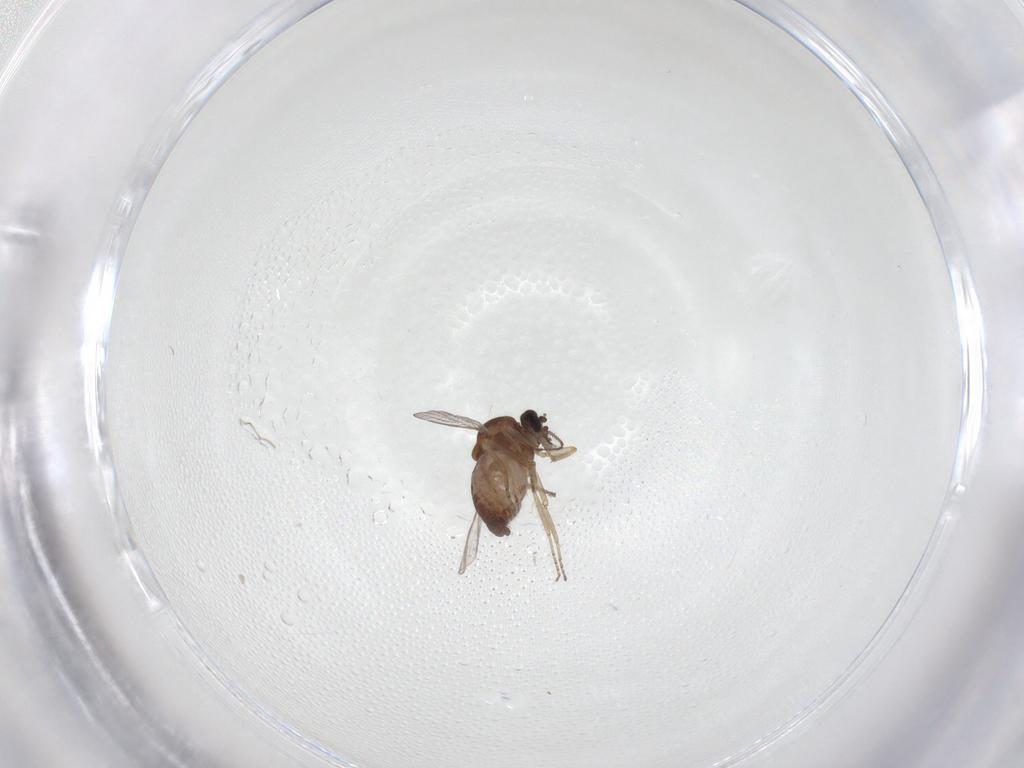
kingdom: Animalia
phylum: Arthropoda
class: Insecta
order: Diptera
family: Ceratopogonidae
